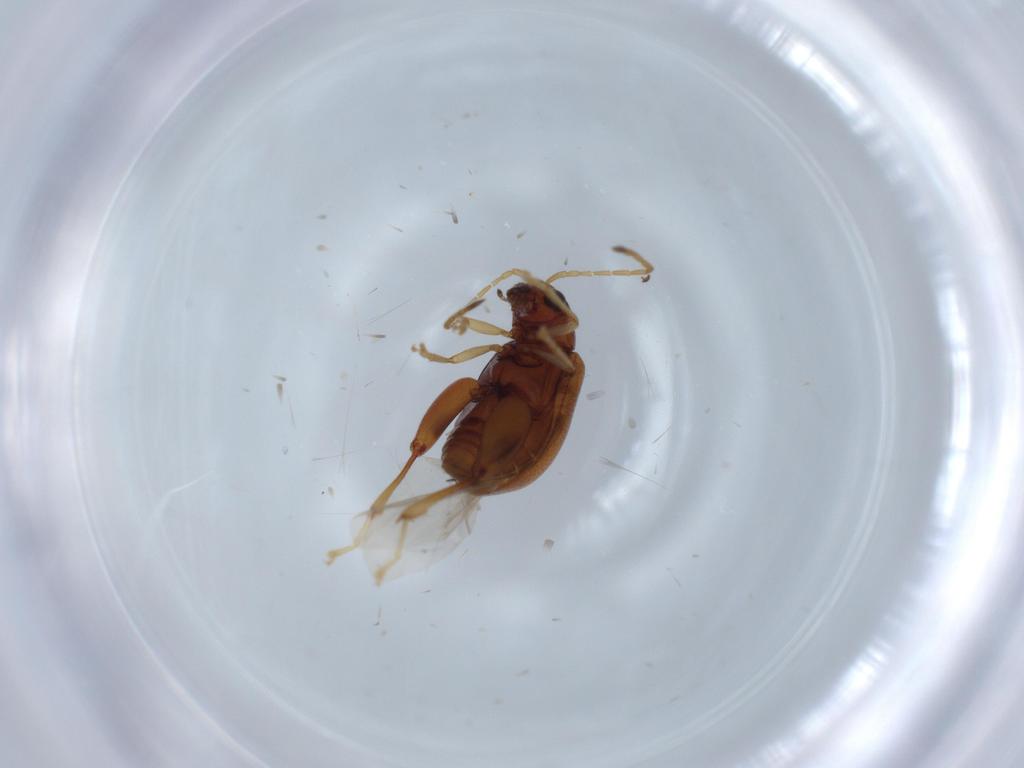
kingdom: Animalia
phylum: Arthropoda
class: Insecta
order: Coleoptera
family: Chrysomelidae
